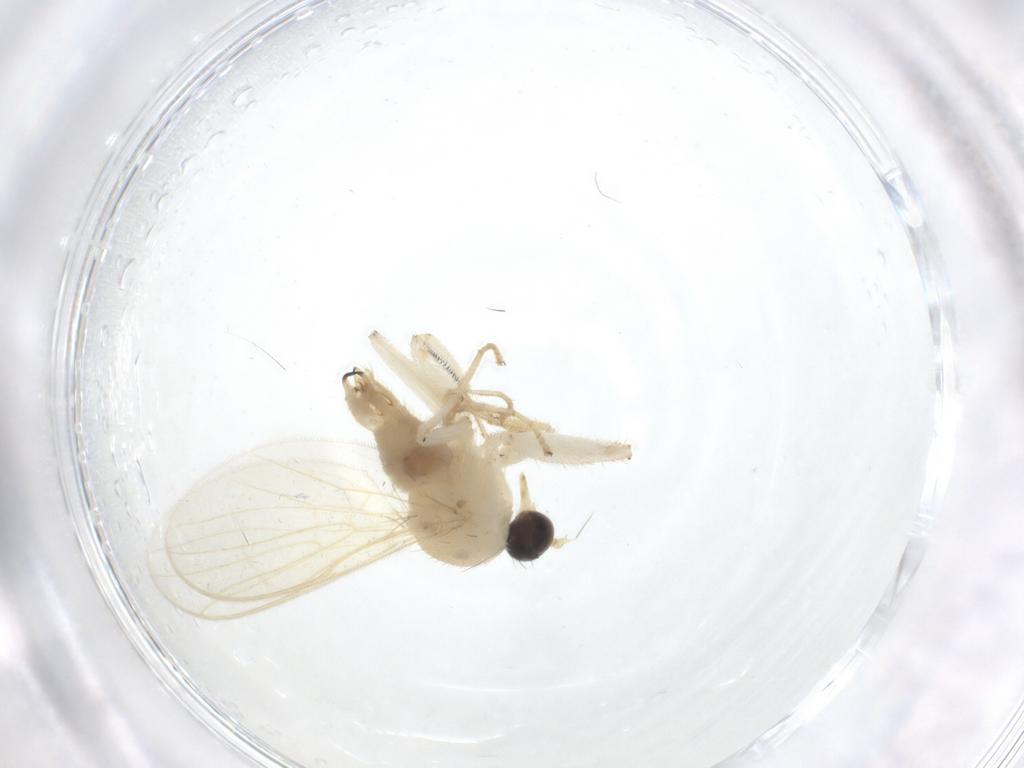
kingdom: Animalia
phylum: Arthropoda
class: Insecta
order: Diptera
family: Hybotidae
